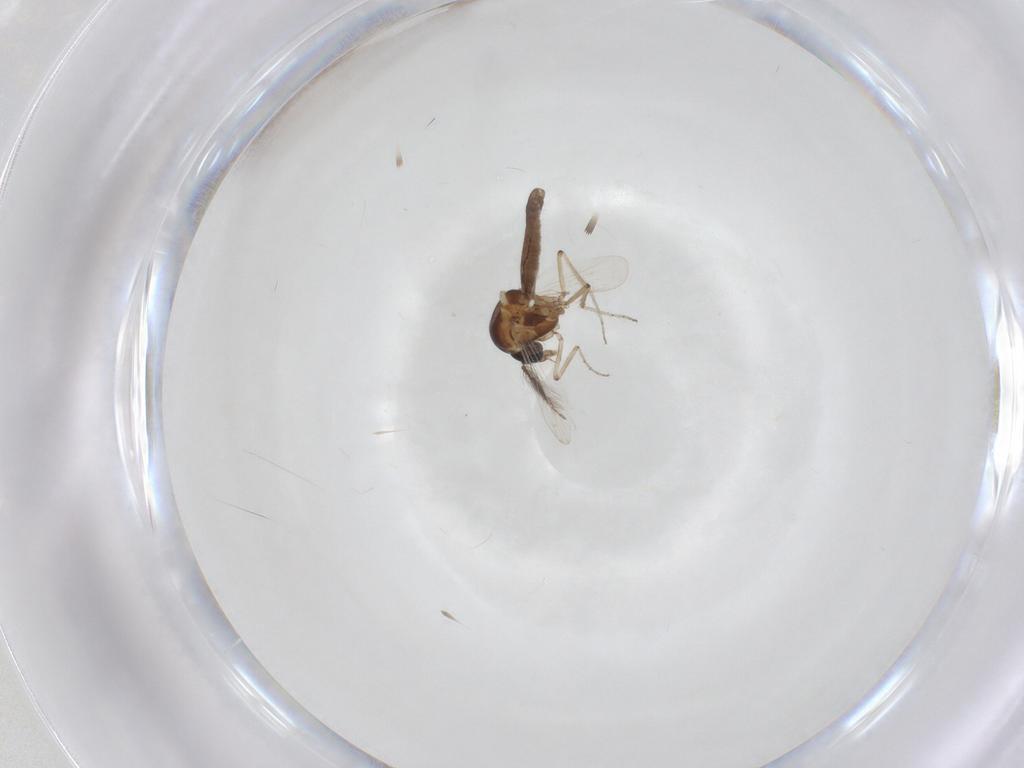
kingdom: Animalia
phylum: Arthropoda
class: Insecta
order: Diptera
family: Ceratopogonidae
